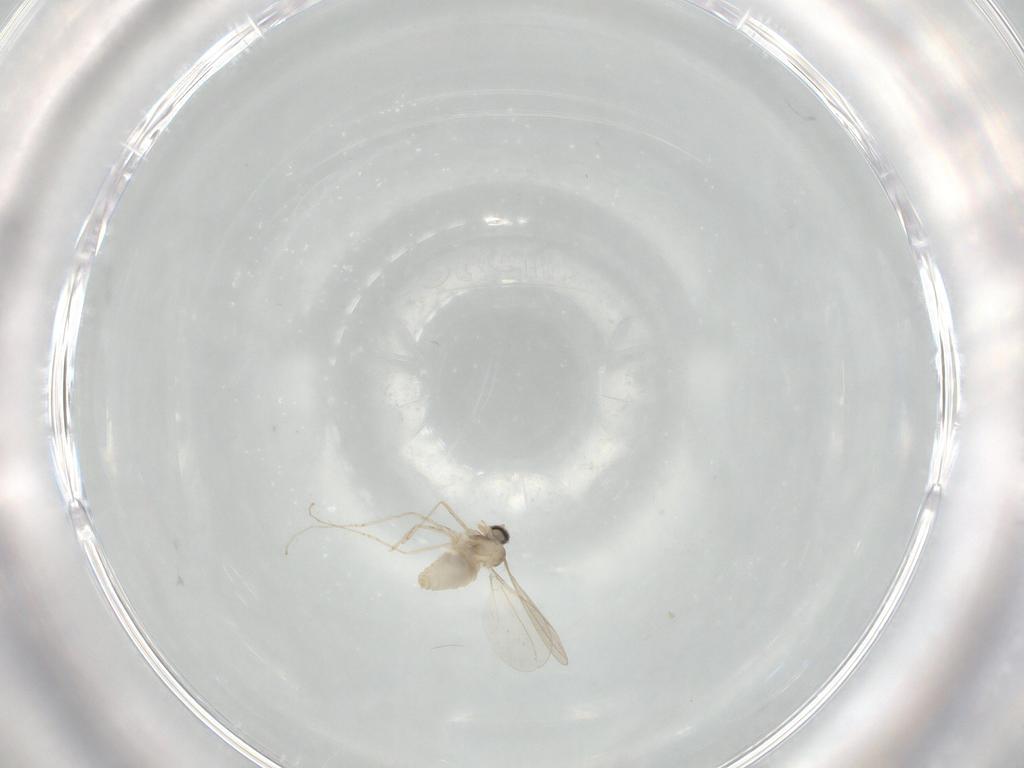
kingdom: Animalia
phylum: Arthropoda
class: Insecta
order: Diptera
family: Cecidomyiidae
